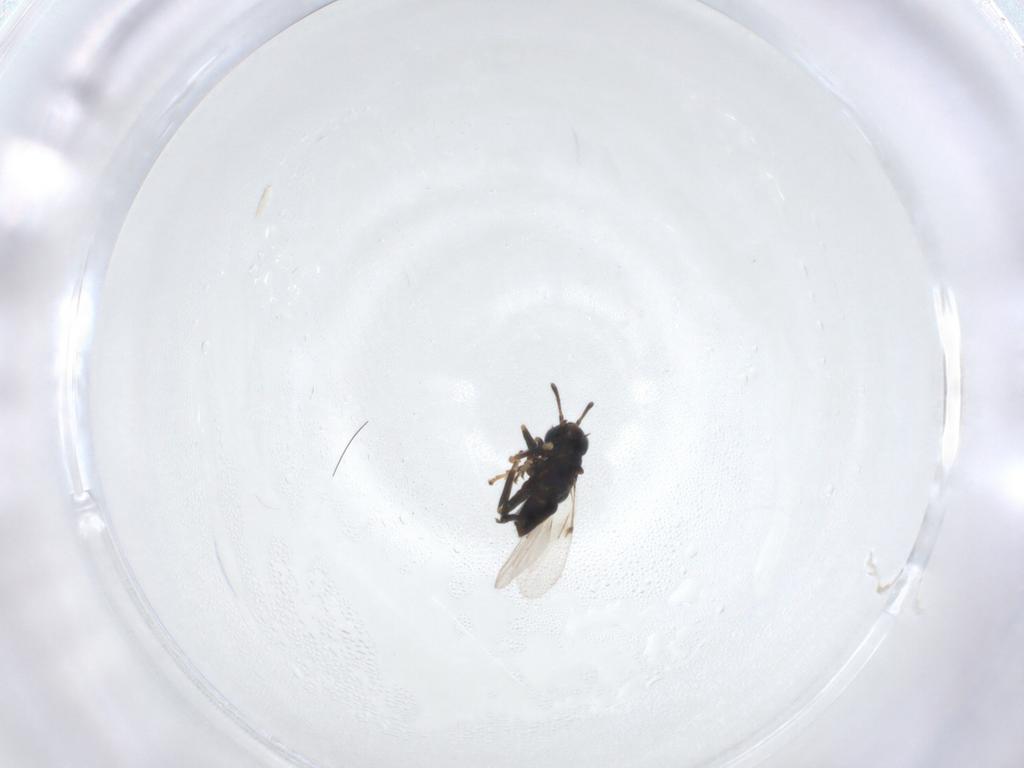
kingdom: Animalia
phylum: Arthropoda
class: Insecta
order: Hymenoptera
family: Encyrtidae
